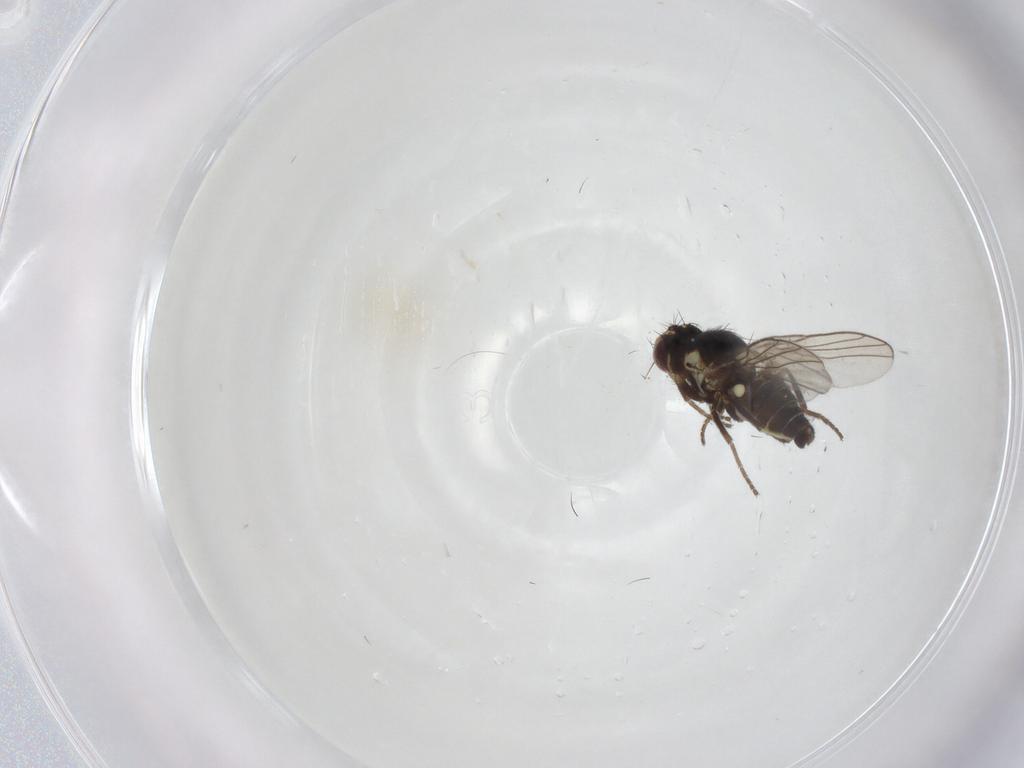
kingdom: Animalia
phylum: Arthropoda
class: Insecta
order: Diptera
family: Agromyzidae
